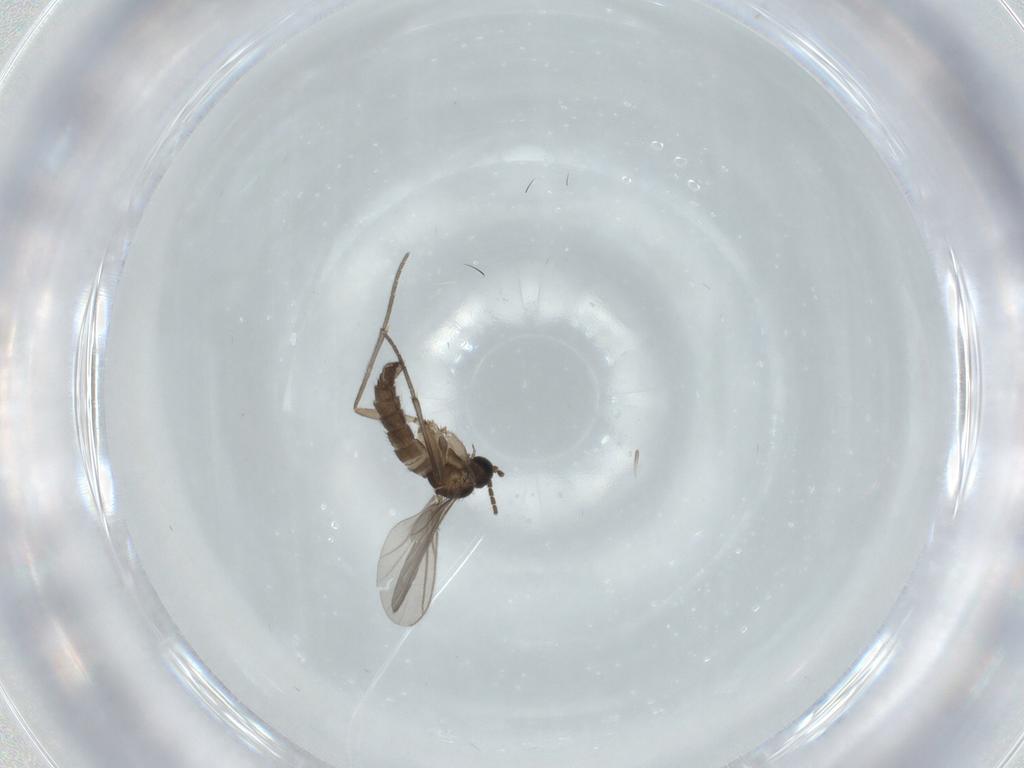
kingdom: Animalia
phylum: Arthropoda
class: Insecta
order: Diptera
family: Sciaridae
